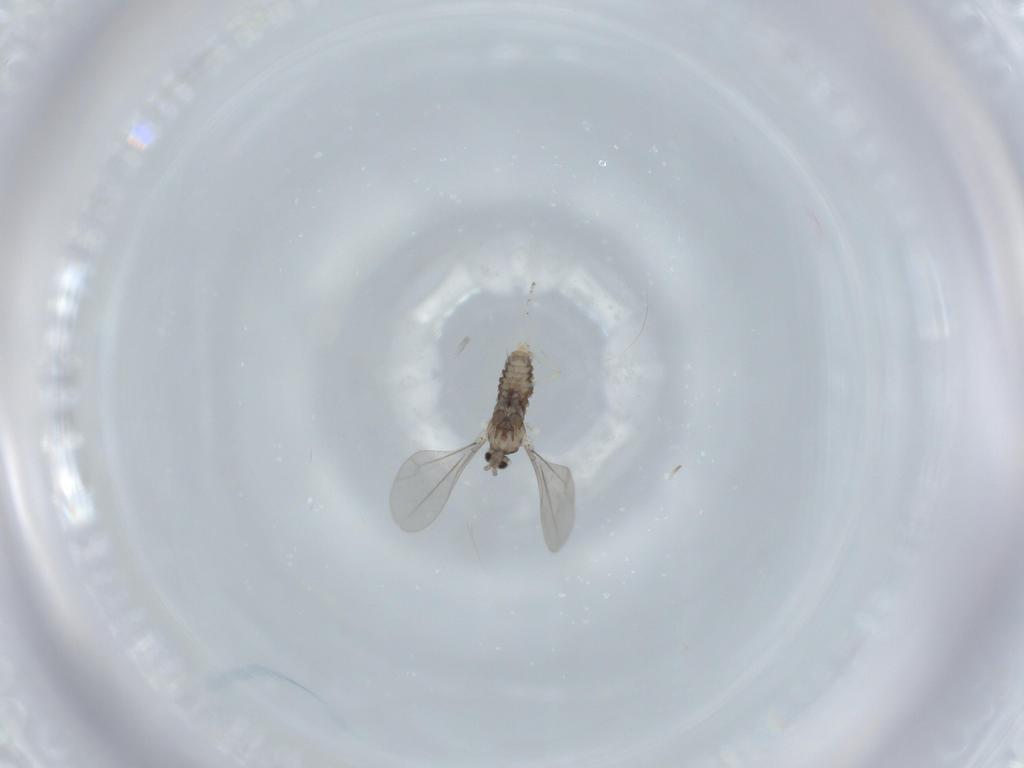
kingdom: Animalia
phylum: Arthropoda
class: Insecta
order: Diptera
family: Cecidomyiidae
